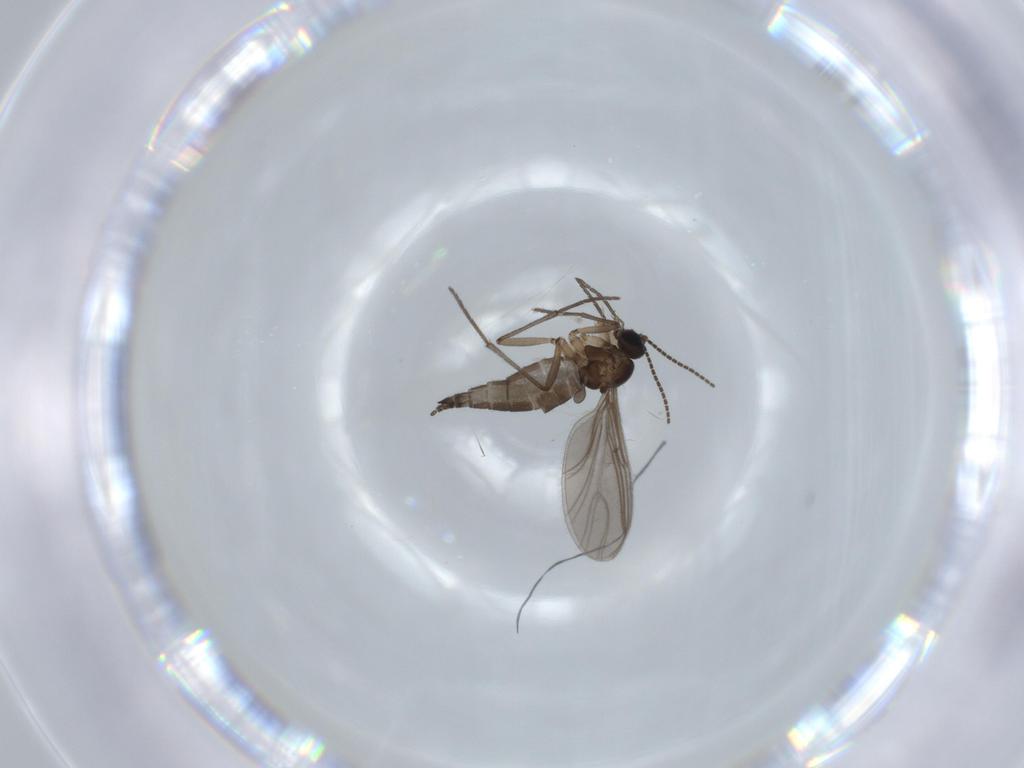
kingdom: Animalia
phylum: Arthropoda
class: Insecta
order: Diptera
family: Sciaridae
